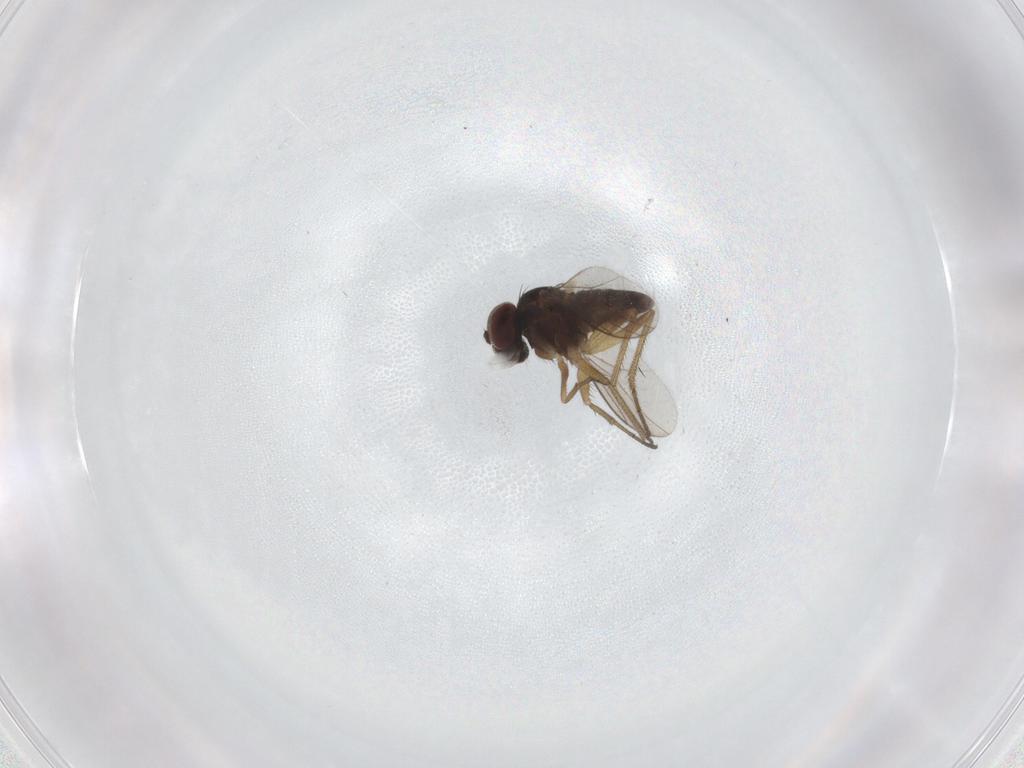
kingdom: Animalia
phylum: Arthropoda
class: Insecta
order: Diptera
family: Dolichopodidae
